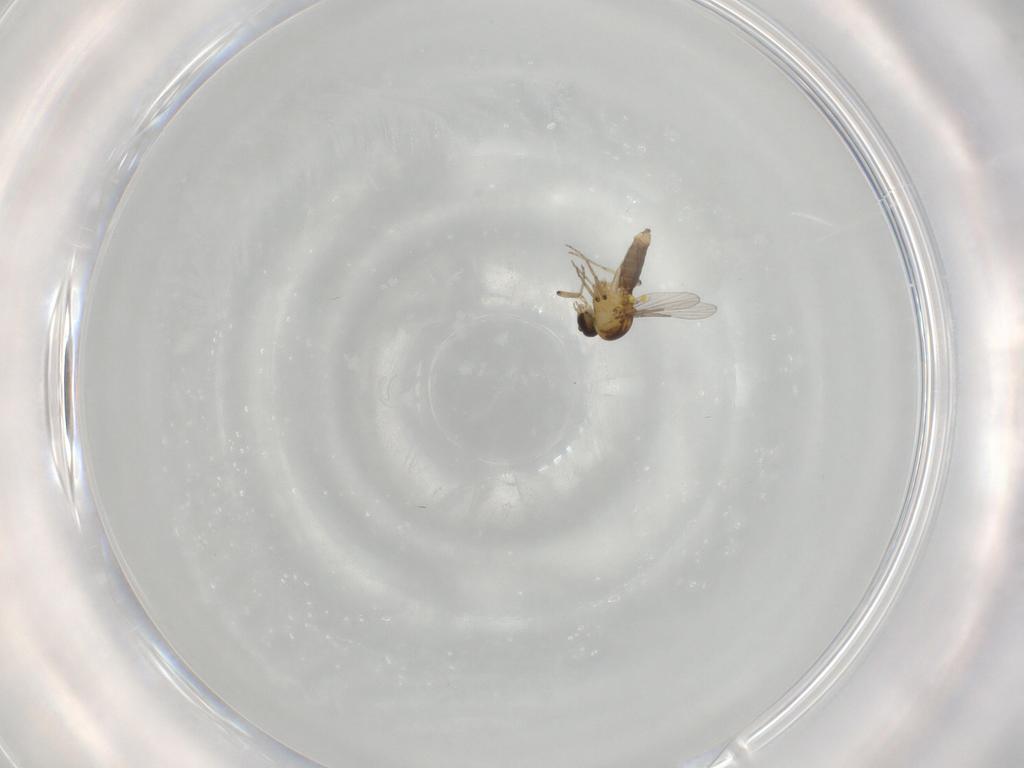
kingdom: Animalia
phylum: Arthropoda
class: Insecta
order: Diptera
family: Ceratopogonidae
